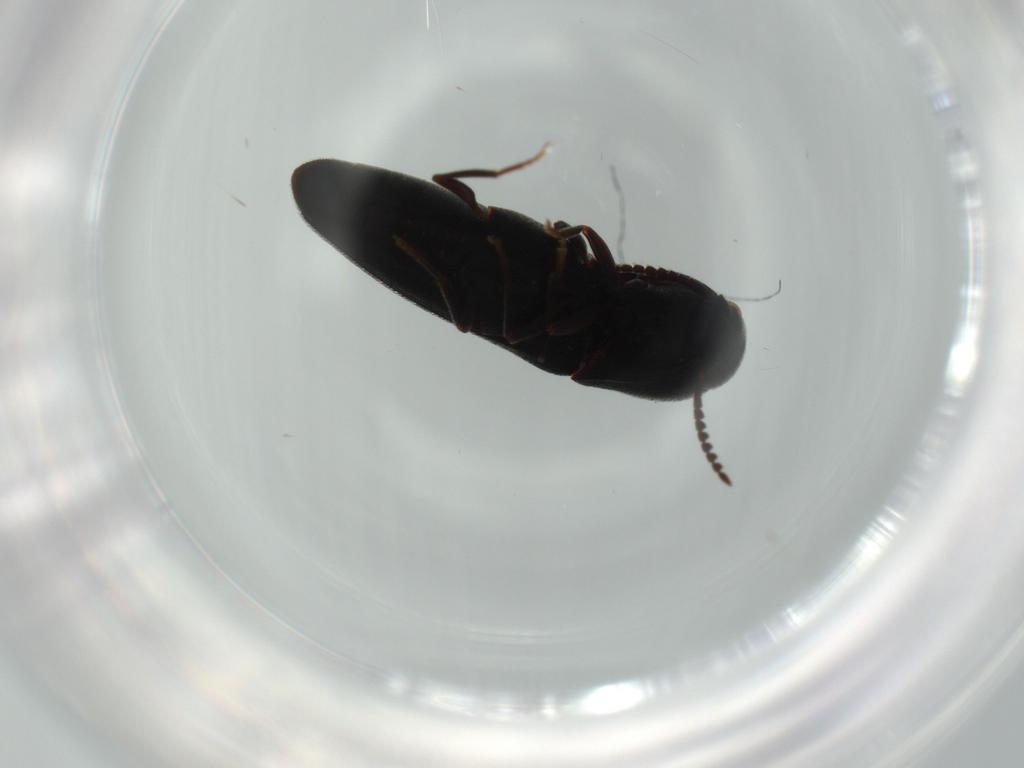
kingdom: Animalia
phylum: Arthropoda
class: Insecta
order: Coleoptera
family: Eucnemidae
